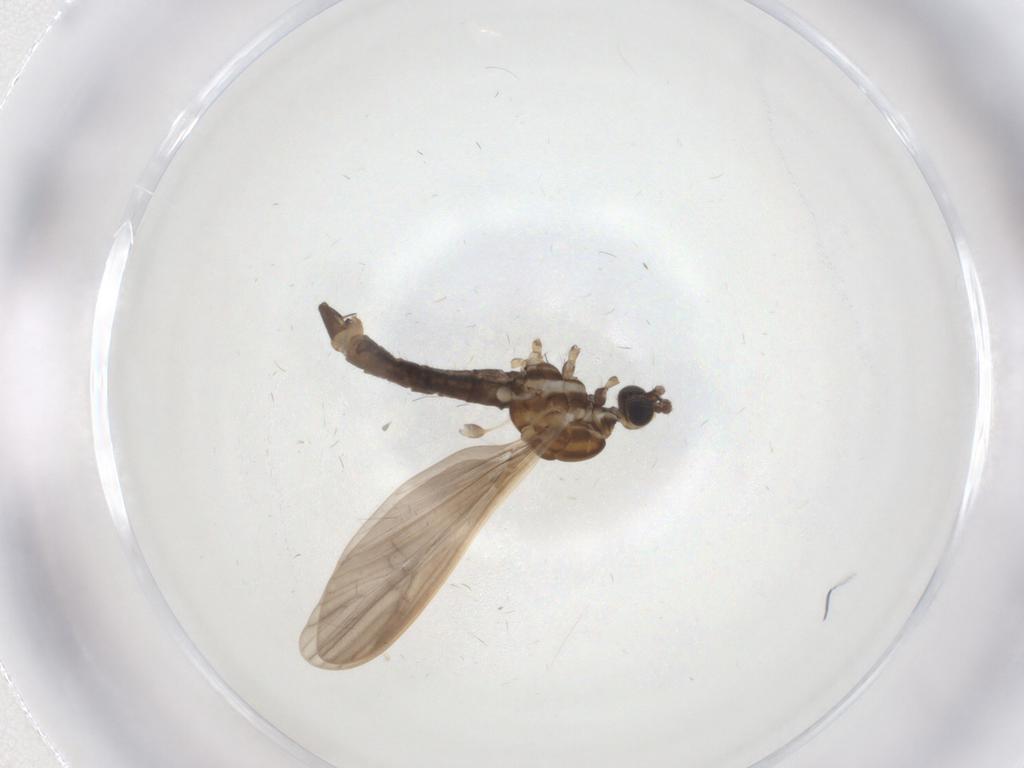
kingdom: Animalia
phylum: Arthropoda
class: Insecta
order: Diptera
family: Limoniidae
